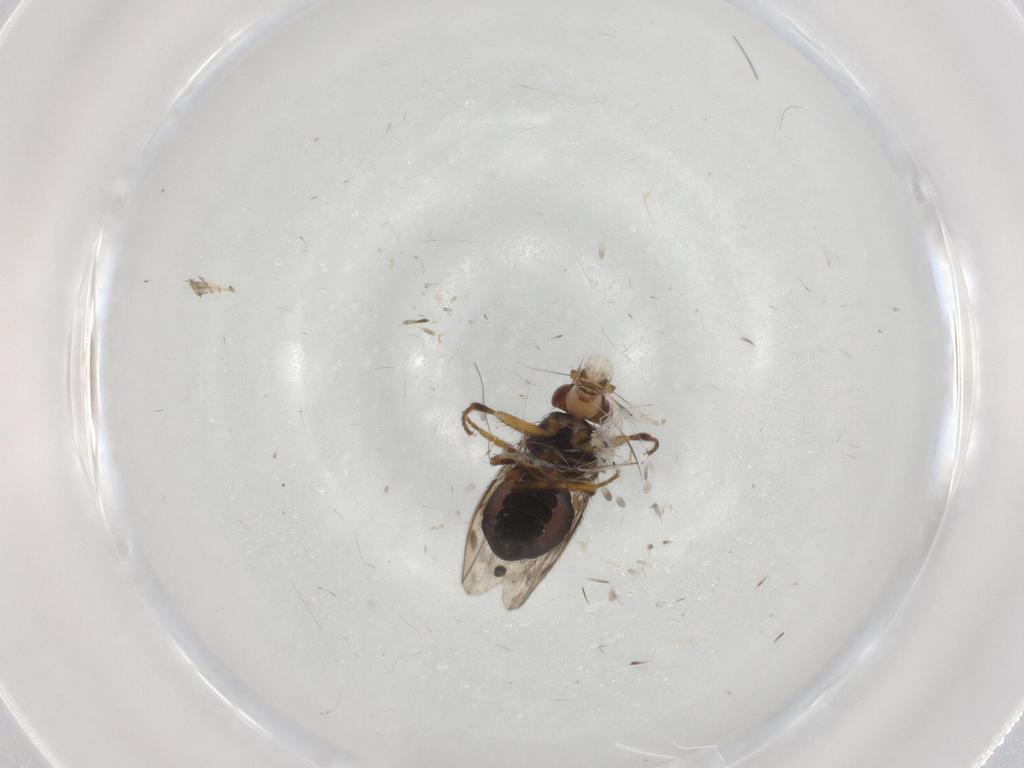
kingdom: Animalia
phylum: Arthropoda
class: Insecta
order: Diptera
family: Sphaeroceridae
